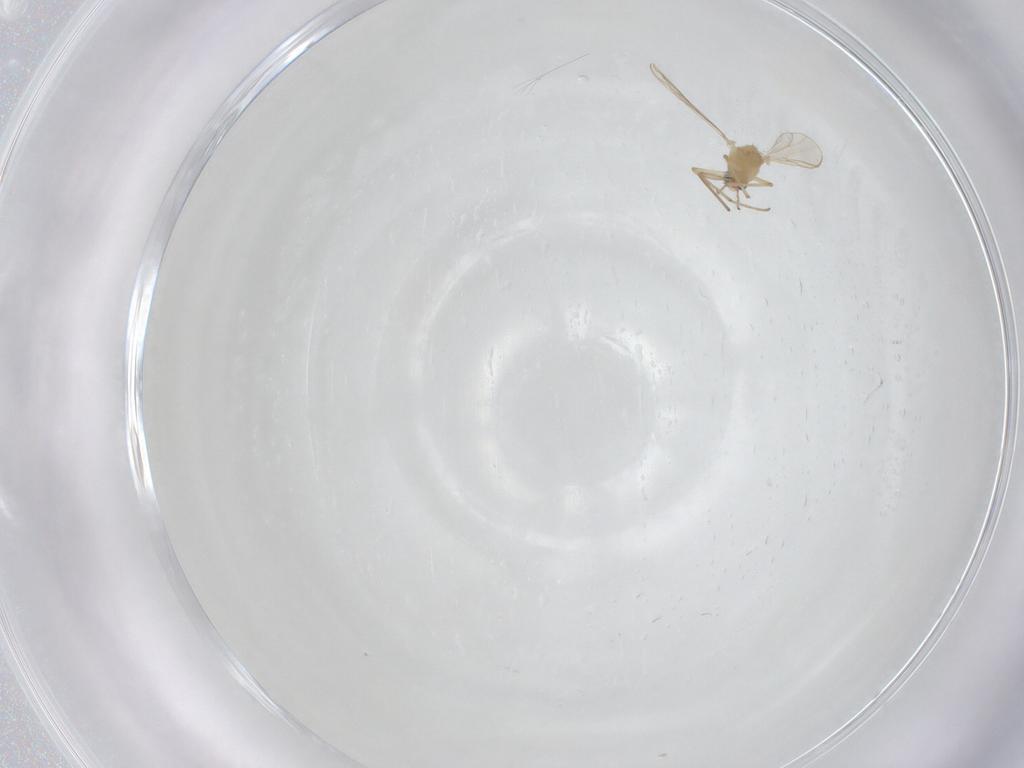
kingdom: Animalia
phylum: Arthropoda
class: Insecta
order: Diptera
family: Chironomidae
